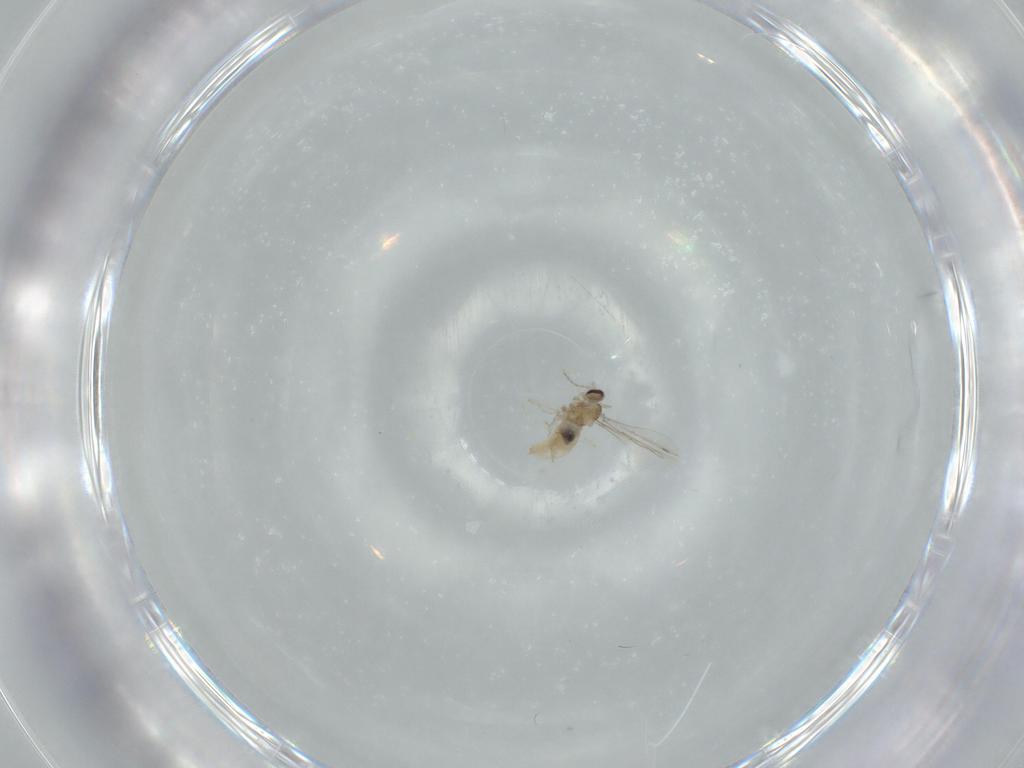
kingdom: Animalia
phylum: Arthropoda
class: Insecta
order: Diptera
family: Cecidomyiidae
